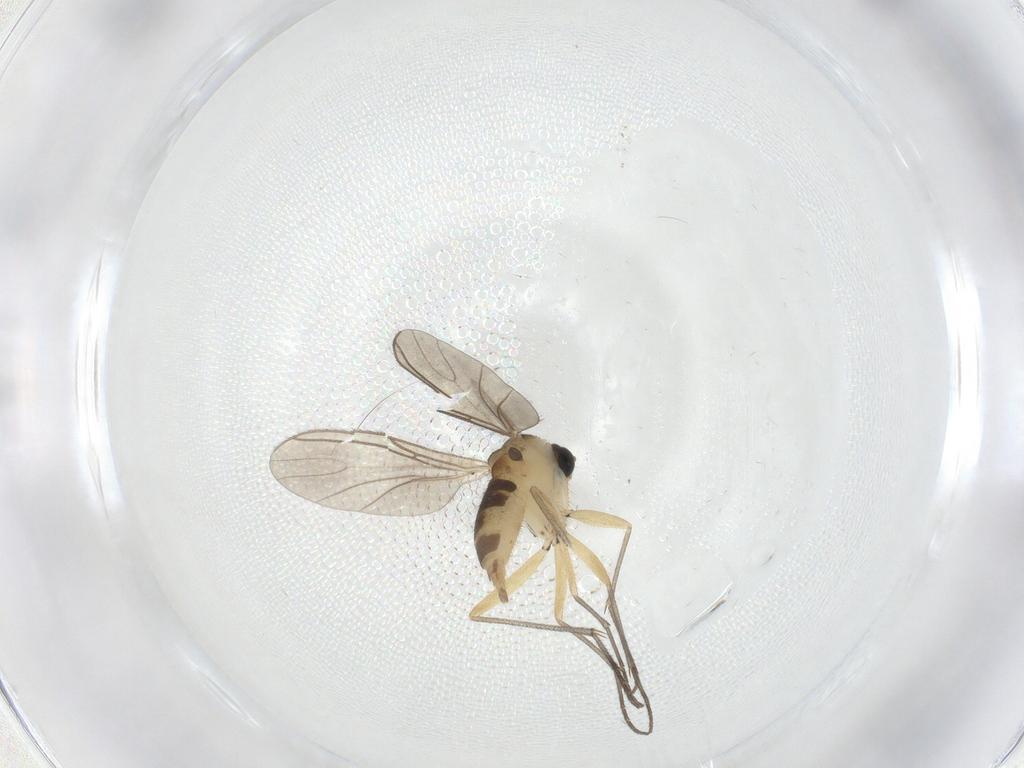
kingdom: Animalia
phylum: Arthropoda
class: Insecta
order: Diptera
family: Sciaridae
